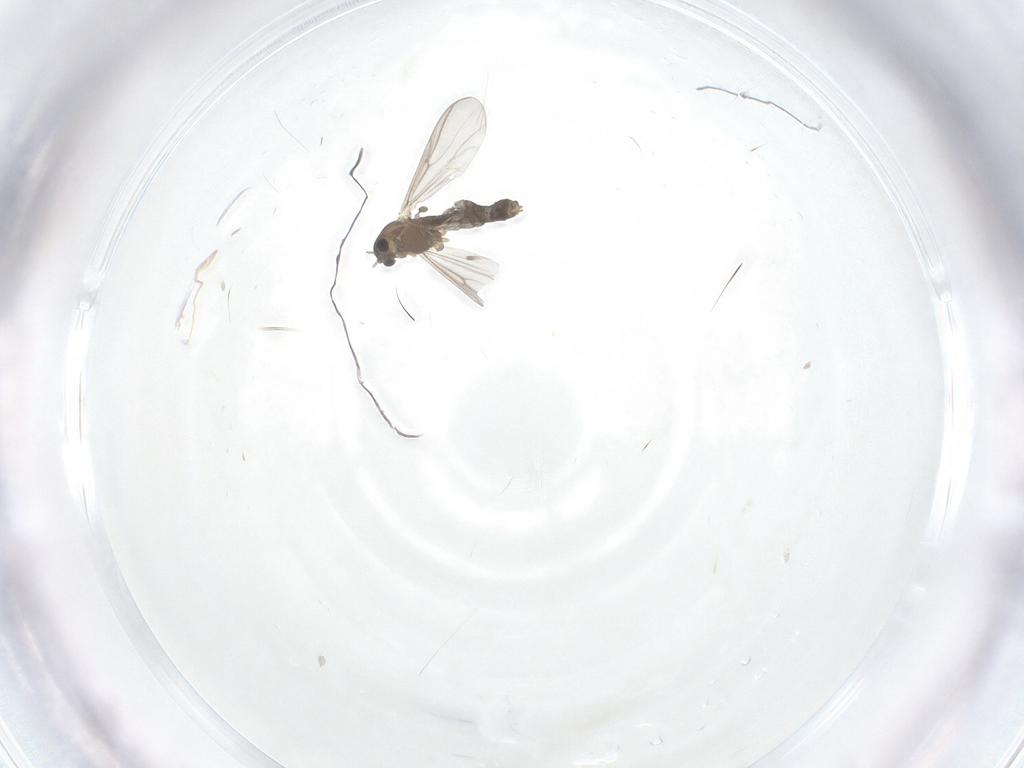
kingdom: Animalia
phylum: Arthropoda
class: Insecta
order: Diptera
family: Chironomidae
